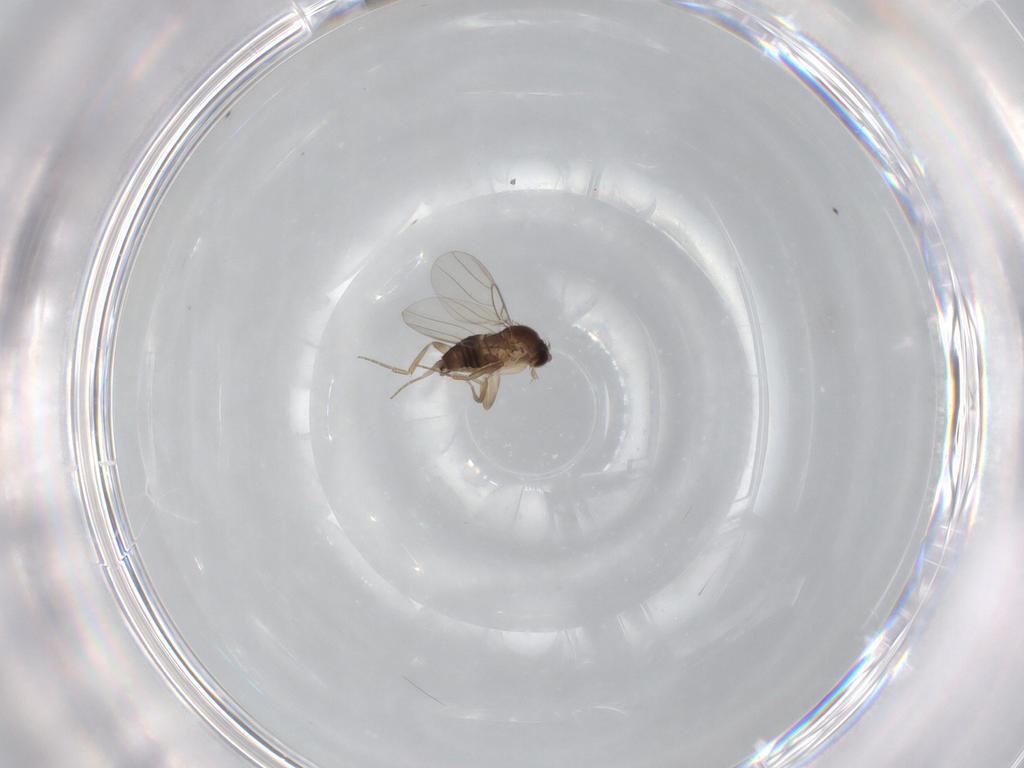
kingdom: Animalia
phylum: Arthropoda
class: Insecta
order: Diptera
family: Phoridae
